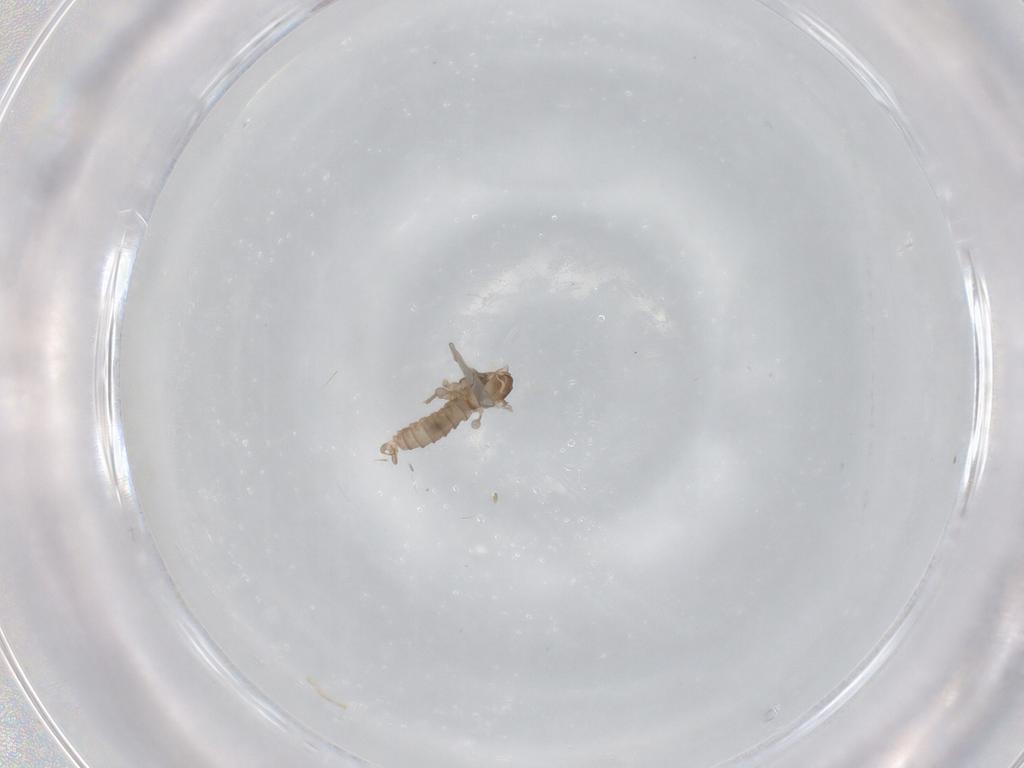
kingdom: Animalia
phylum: Arthropoda
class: Insecta
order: Diptera
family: Cecidomyiidae
